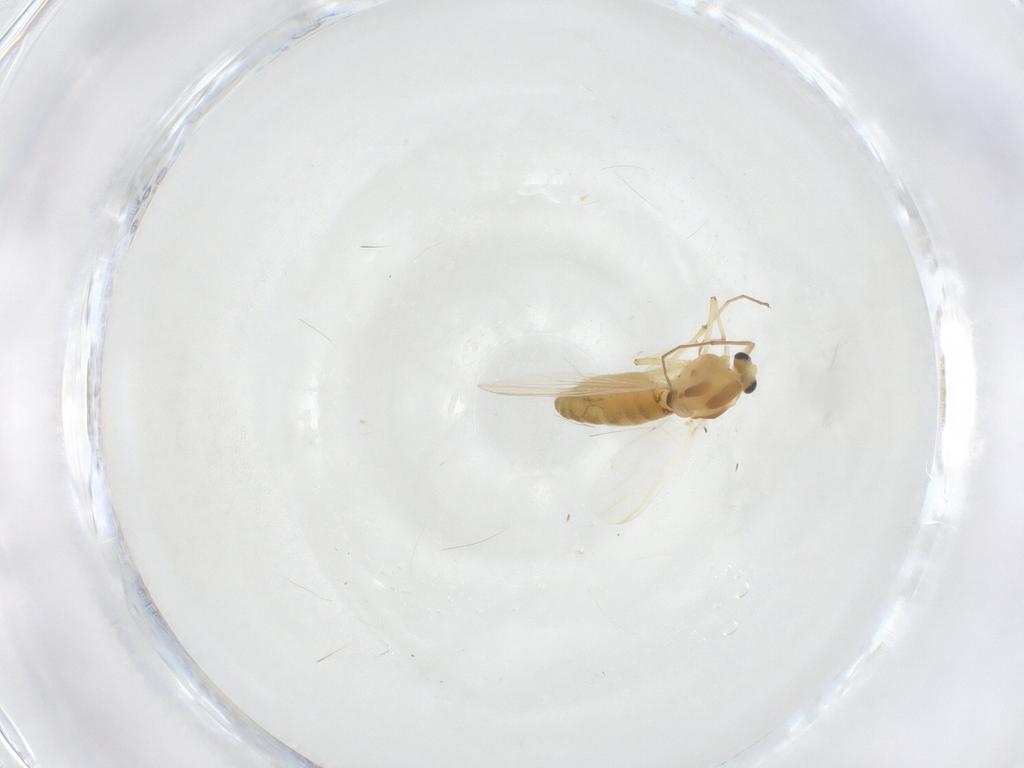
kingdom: Animalia
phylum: Arthropoda
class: Insecta
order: Diptera
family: Chironomidae
